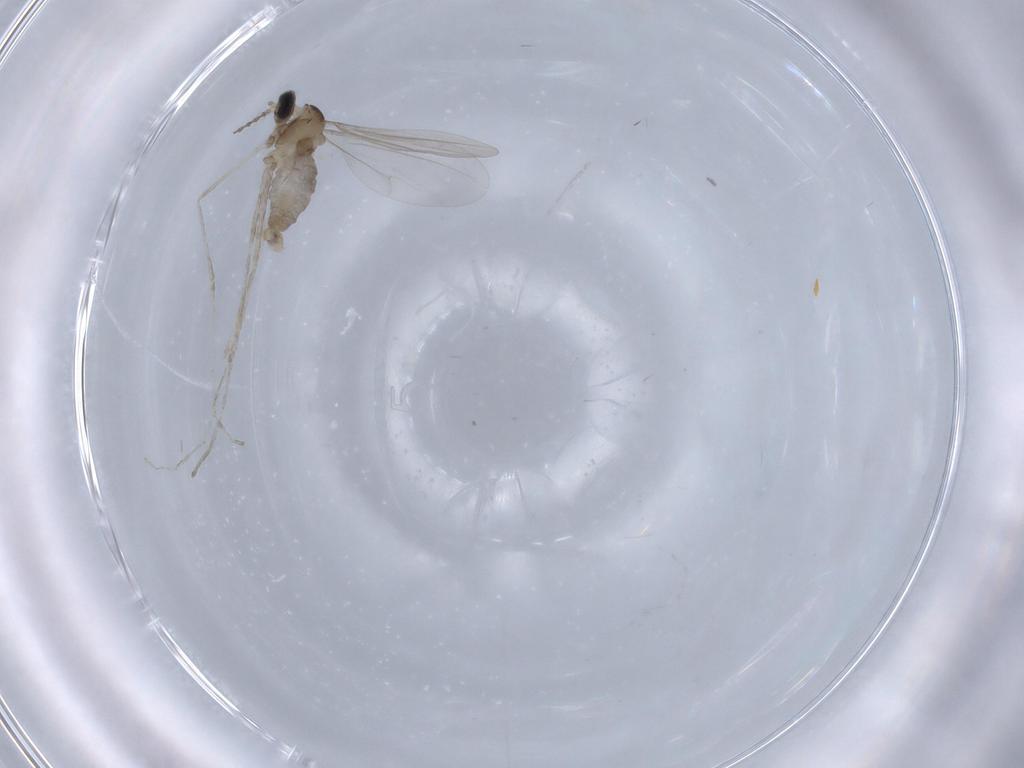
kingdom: Animalia
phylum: Arthropoda
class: Insecta
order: Diptera
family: Cecidomyiidae
